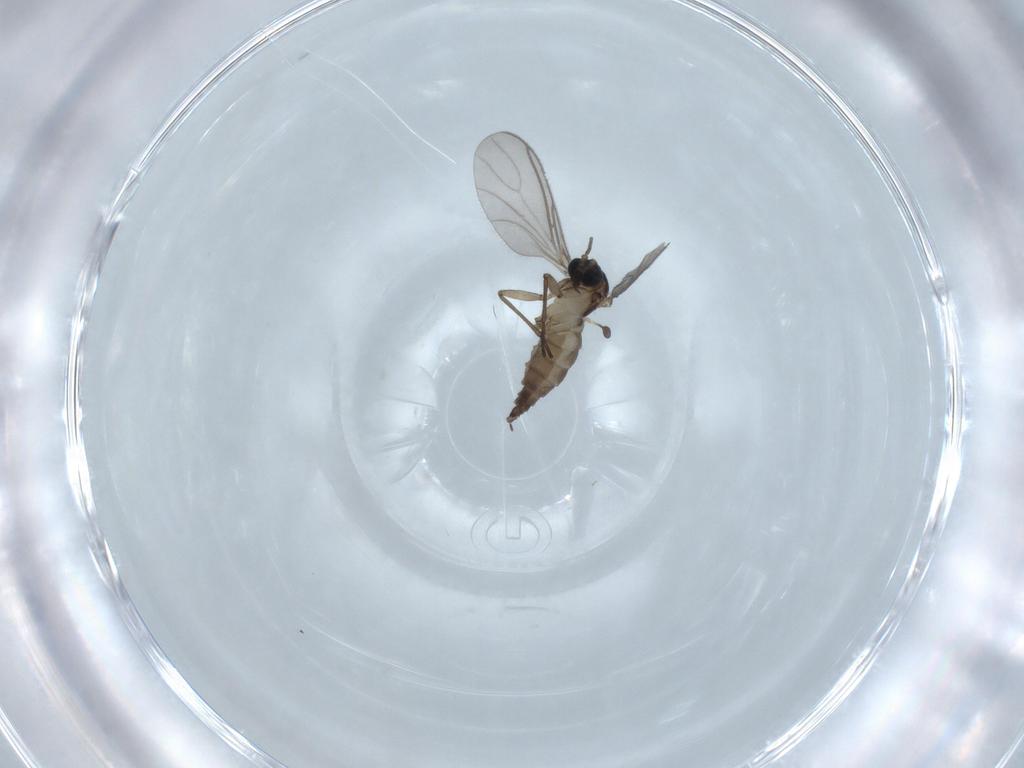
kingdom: Animalia
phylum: Arthropoda
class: Insecta
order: Diptera
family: Sciaridae
